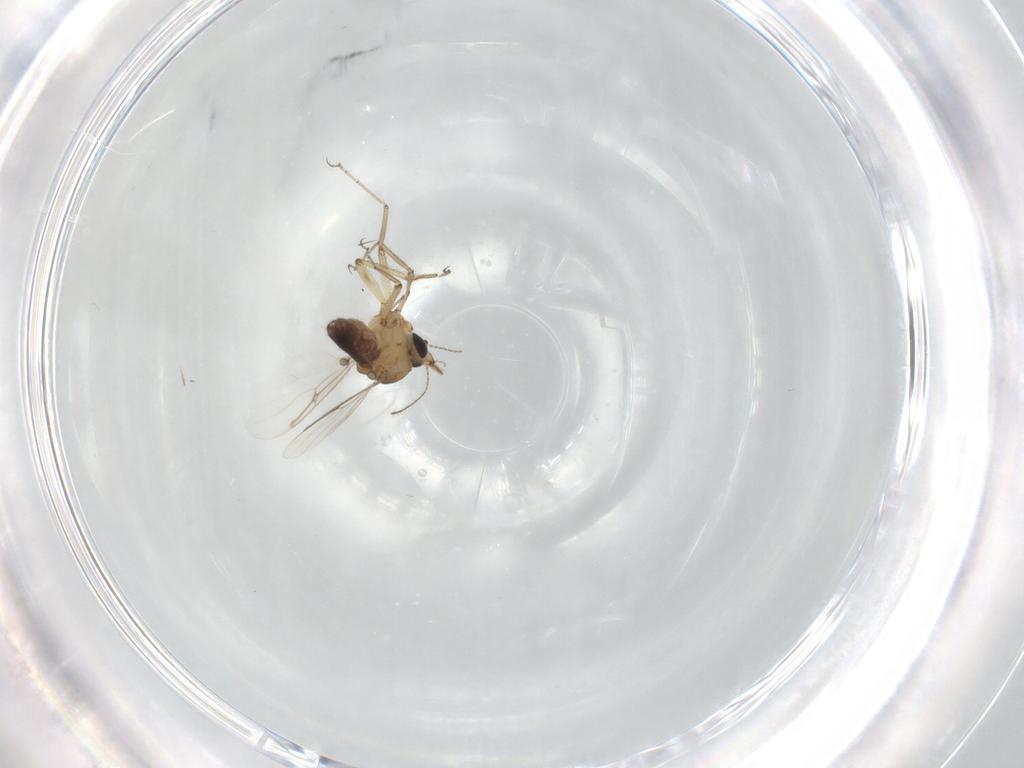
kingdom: Animalia
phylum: Arthropoda
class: Insecta
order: Diptera
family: Ceratopogonidae
